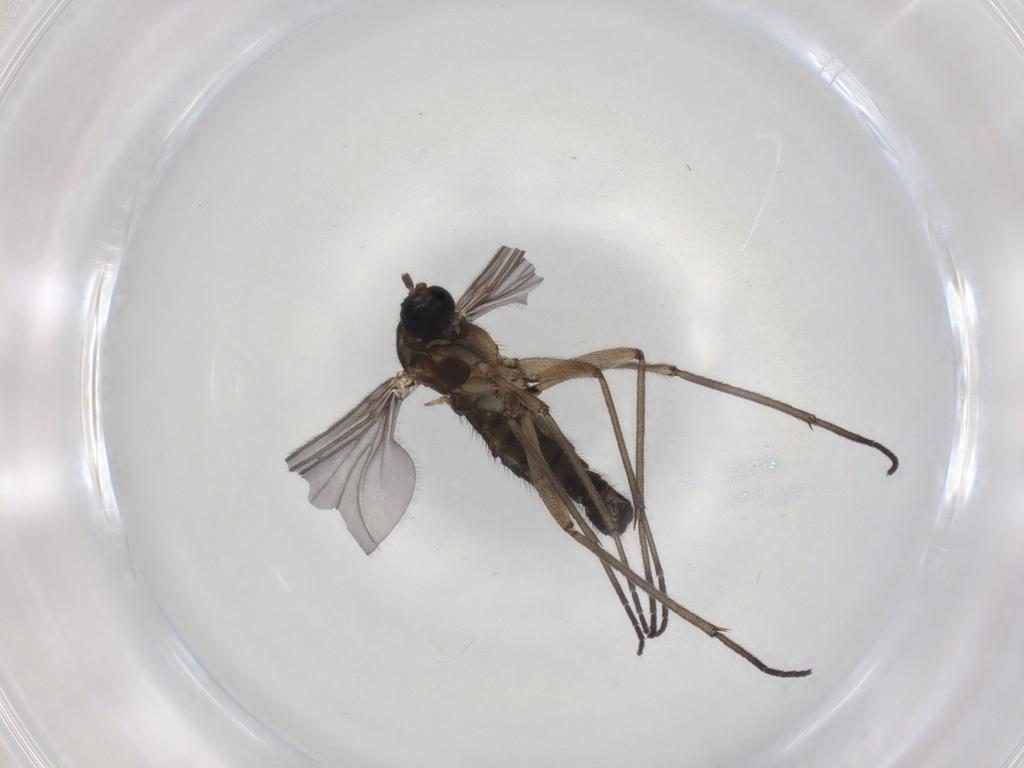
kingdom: Animalia
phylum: Arthropoda
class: Insecta
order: Diptera
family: Sciaridae
